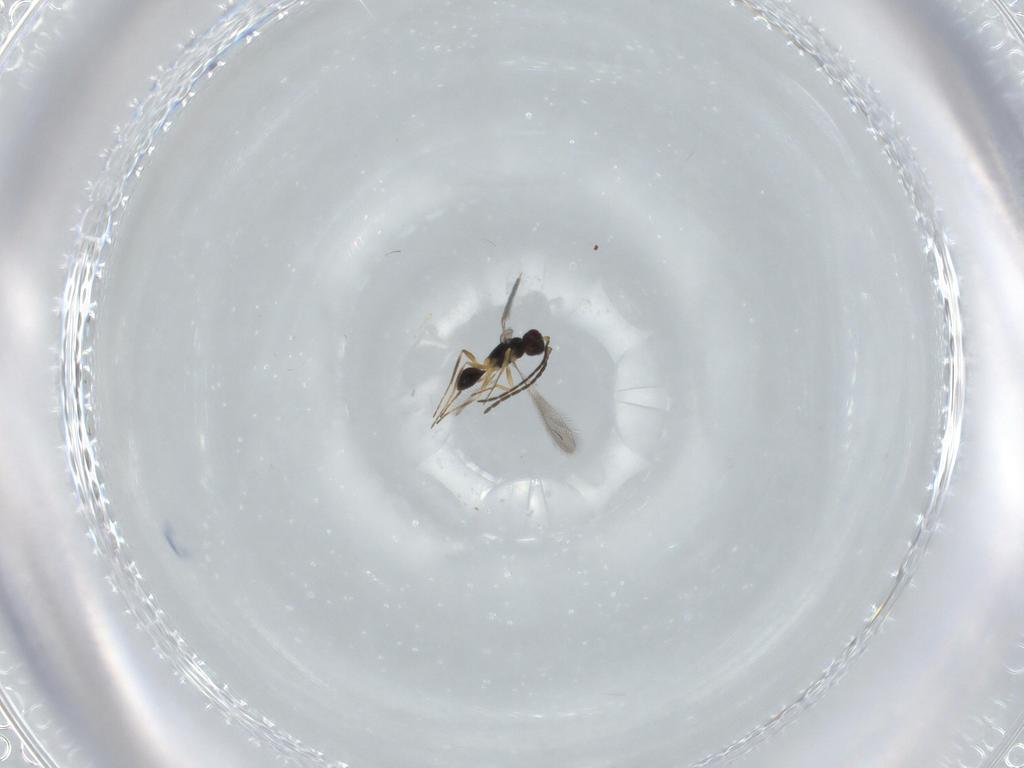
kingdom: Animalia
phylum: Arthropoda
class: Insecta
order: Hymenoptera
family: Mymaridae
